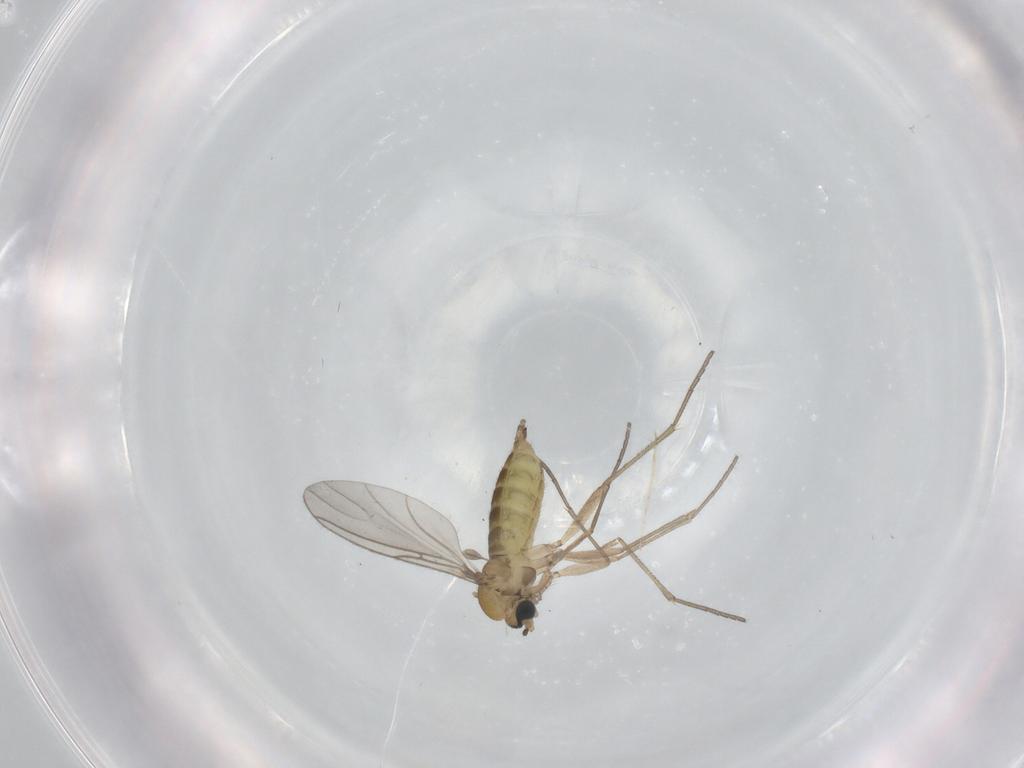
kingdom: Animalia
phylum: Arthropoda
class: Insecta
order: Diptera
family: Sciaridae
